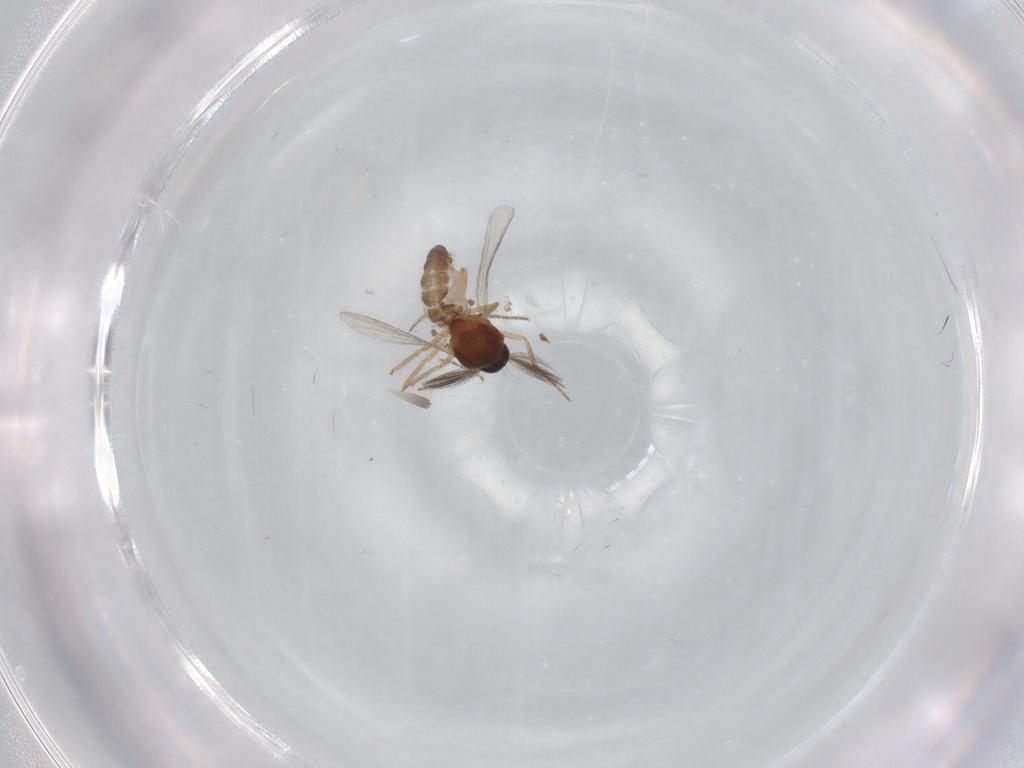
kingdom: Animalia
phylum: Arthropoda
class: Insecta
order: Diptera
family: Ceratopogonidae
